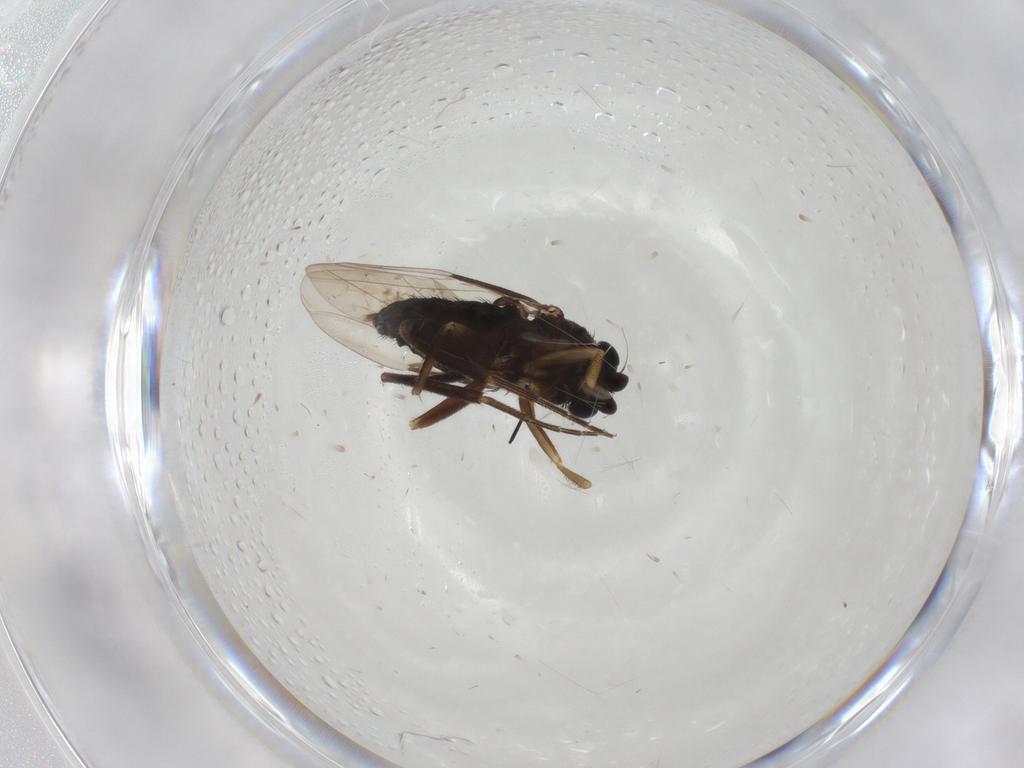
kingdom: Animalia
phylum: Arthropoda
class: Insecta
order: Diptera
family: Phoridae
